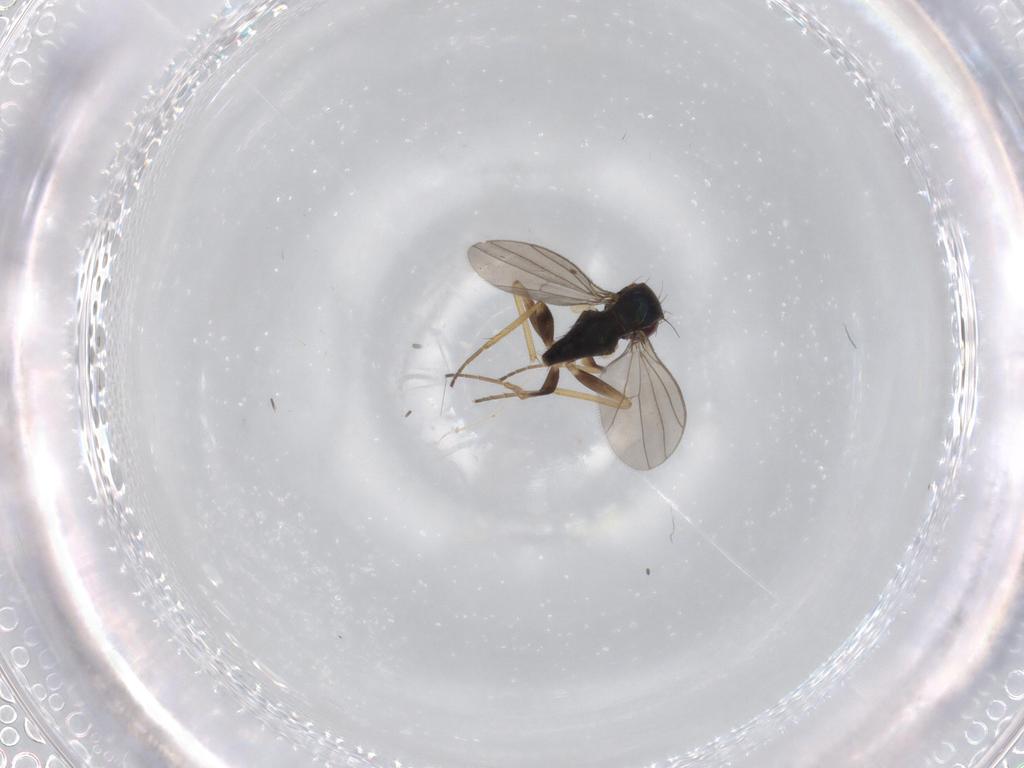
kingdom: Animalia
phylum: Arthropoda
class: Insecta
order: Diptera
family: Dolichopodidae
